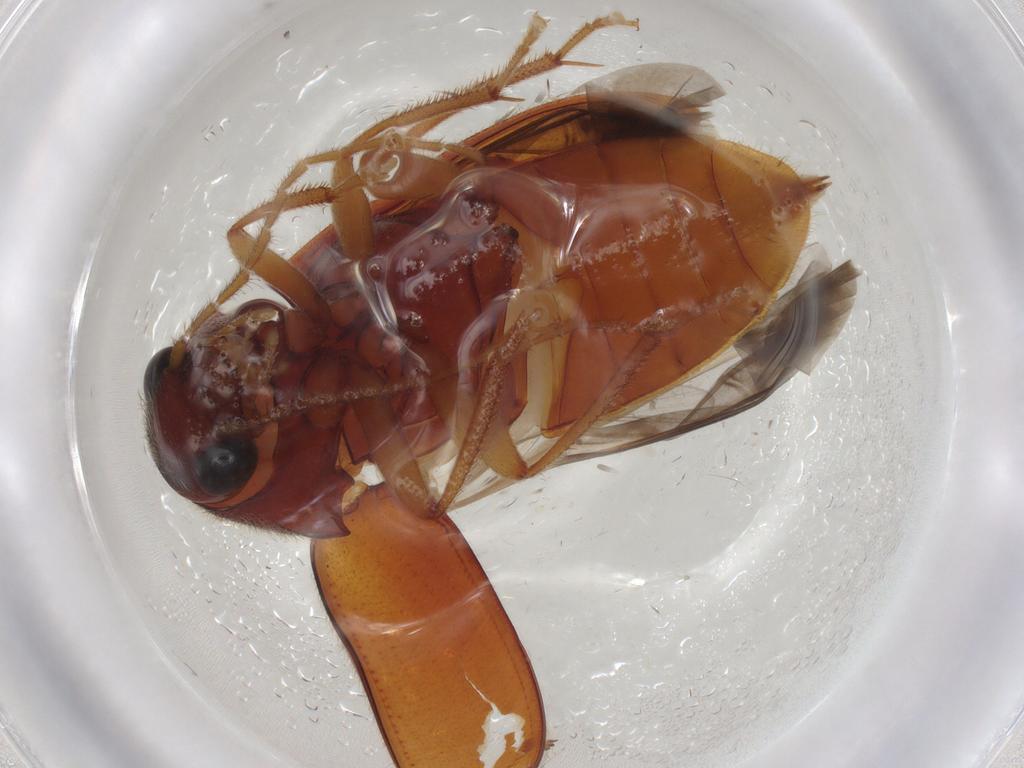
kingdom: Animalia
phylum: Arthropoda
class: Insecta
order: Coleoptera
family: Ptilodactylidae
